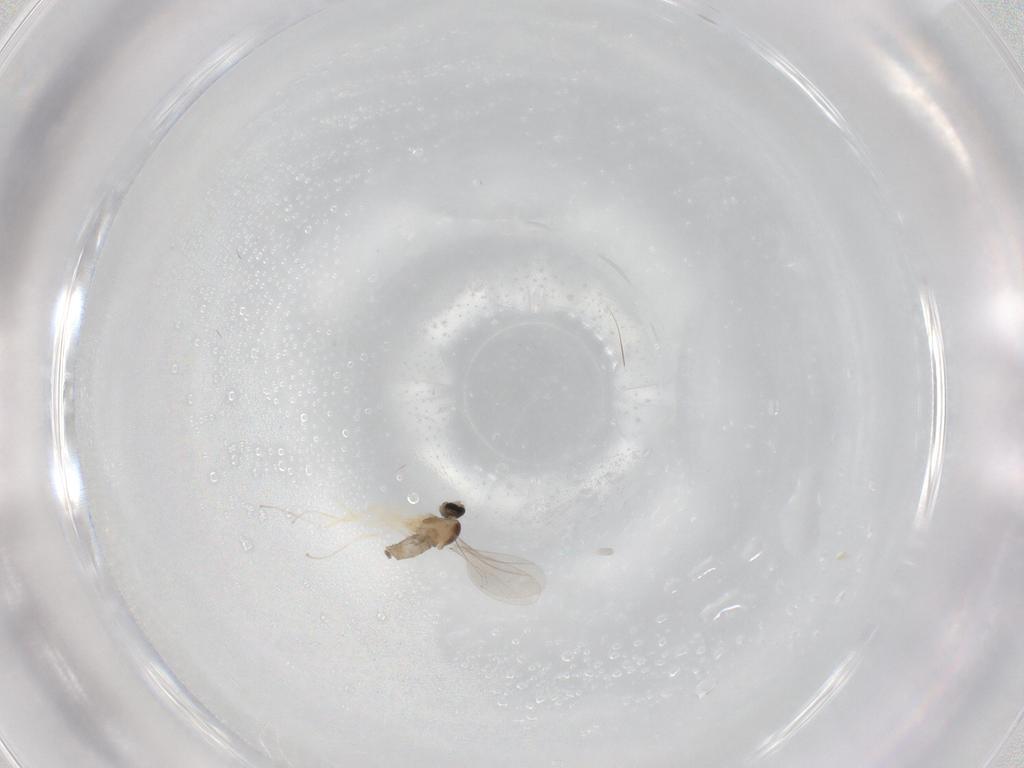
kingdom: Animalia
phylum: Arthropoda
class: Insecta
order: Diptera
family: Cecidomyiidae
